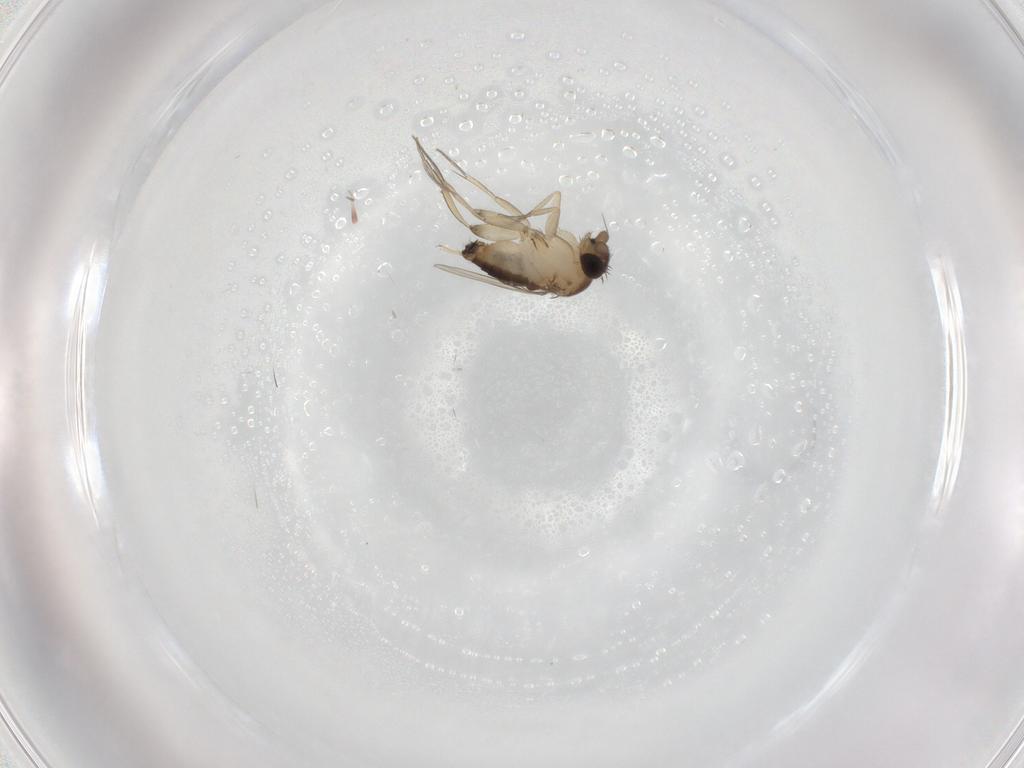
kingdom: Animalia
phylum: Arthropoda
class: Insecta
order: Diptera
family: Phoridae
